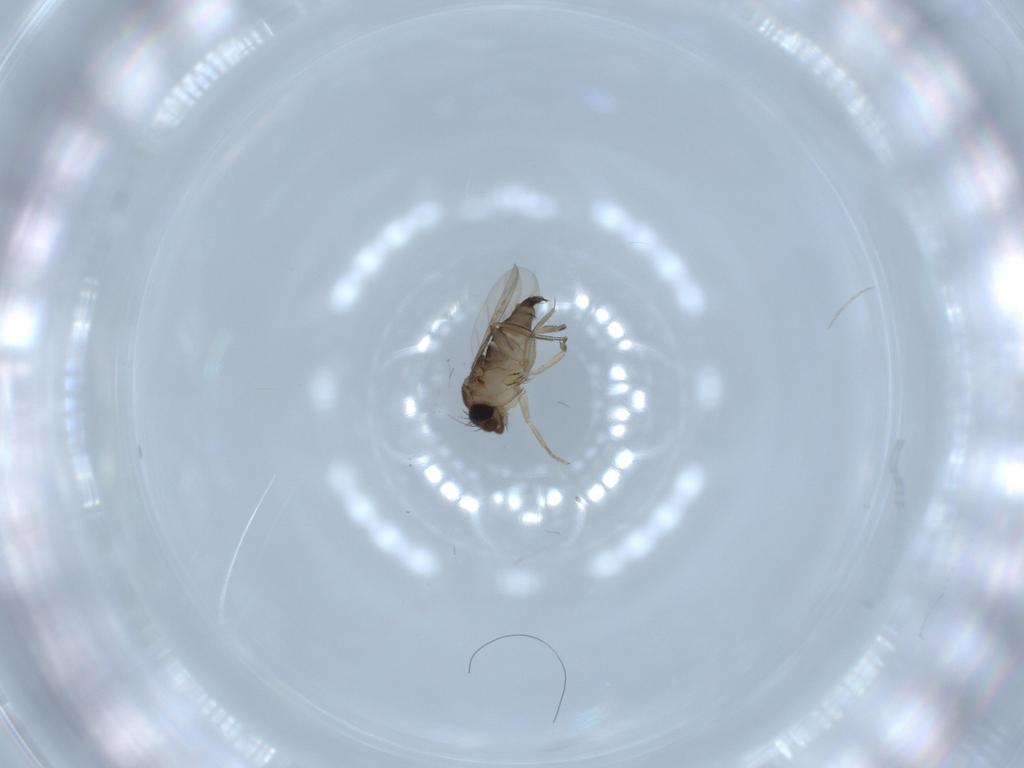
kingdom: Animalia
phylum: Arthropoda
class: Insecta
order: Diptera
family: Phoridae
